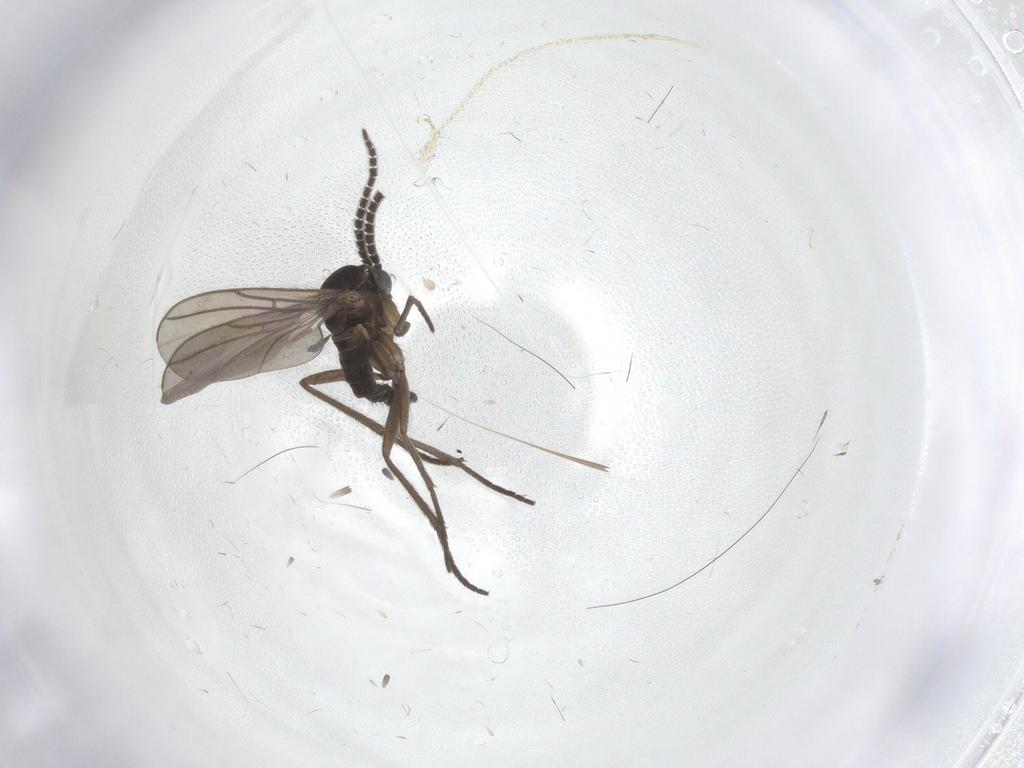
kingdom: Animalia
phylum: Arthropoda
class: Insecta
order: Diptera
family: Sciaridae
